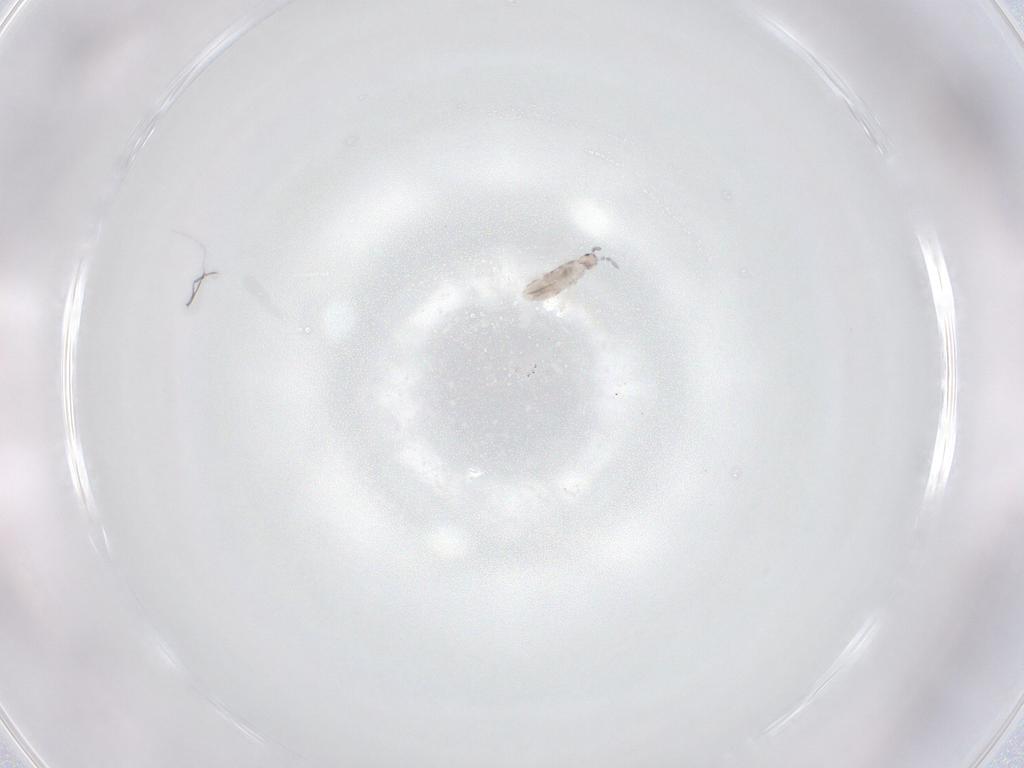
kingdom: Animalia
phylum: Arthropoda
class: Collembola
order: Entomobryomorpha
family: Entomobryidae
